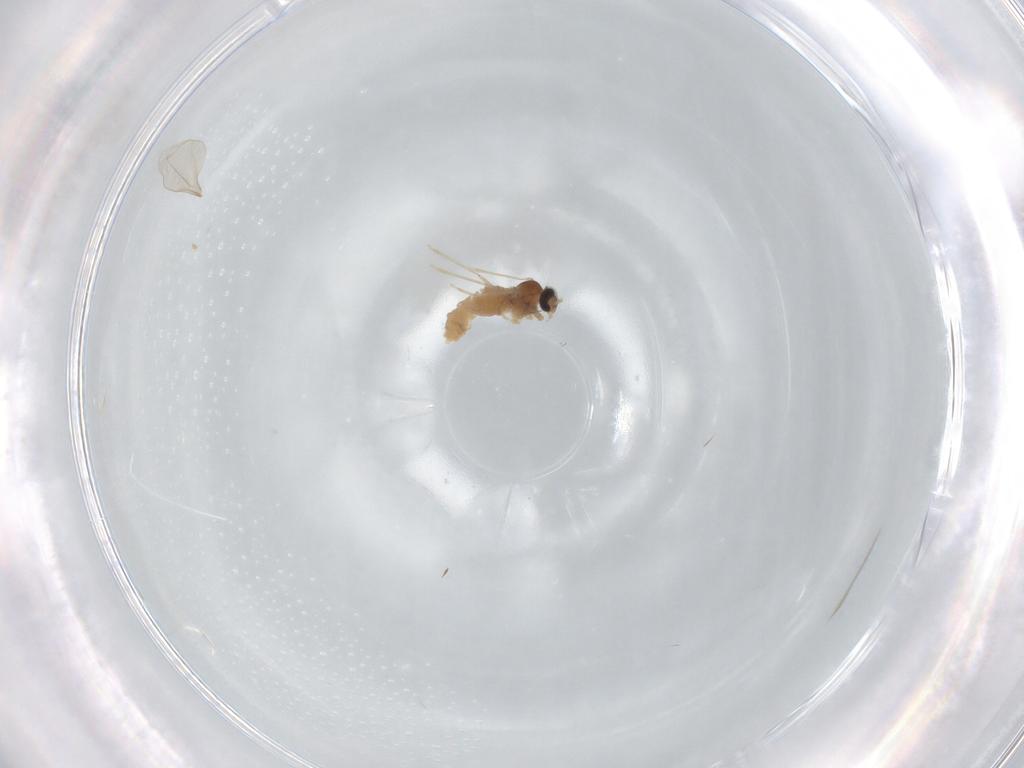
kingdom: Animalia
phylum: Arthropoda
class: Insecta
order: Diptera
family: Cecidomyiidae
